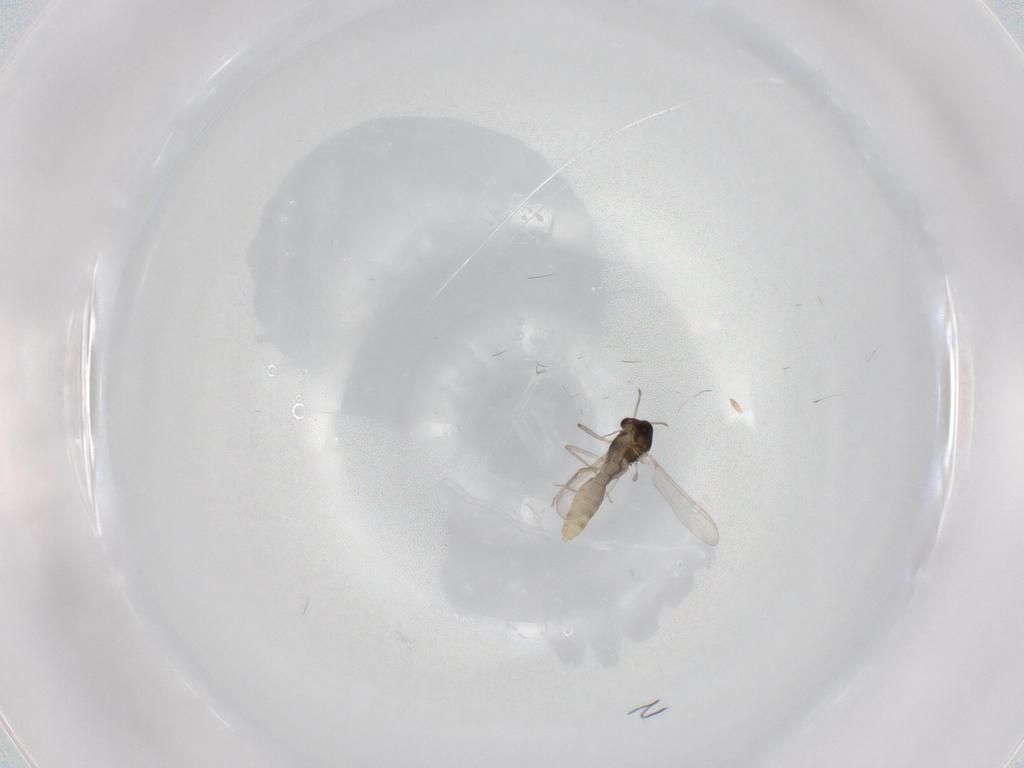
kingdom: Animalia
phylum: Arthropoda
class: Insecta
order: Diptera
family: Chironomidae
